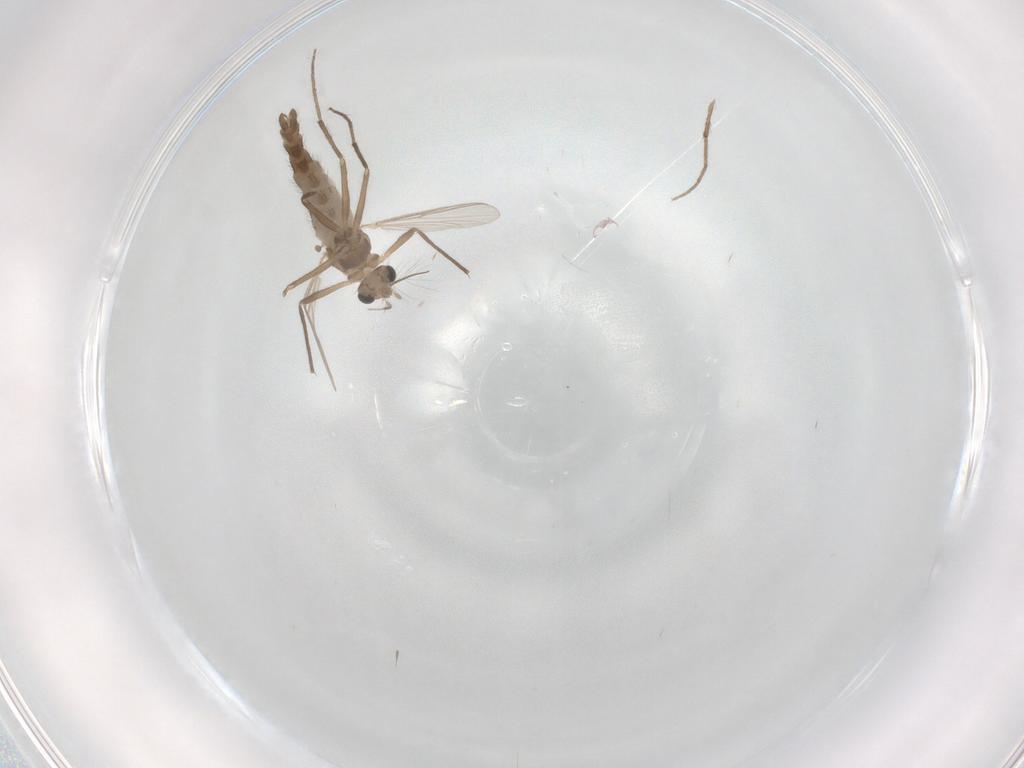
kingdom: Animalia
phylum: Arthropoda
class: Insecta
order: Diptera
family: Chironomidae
